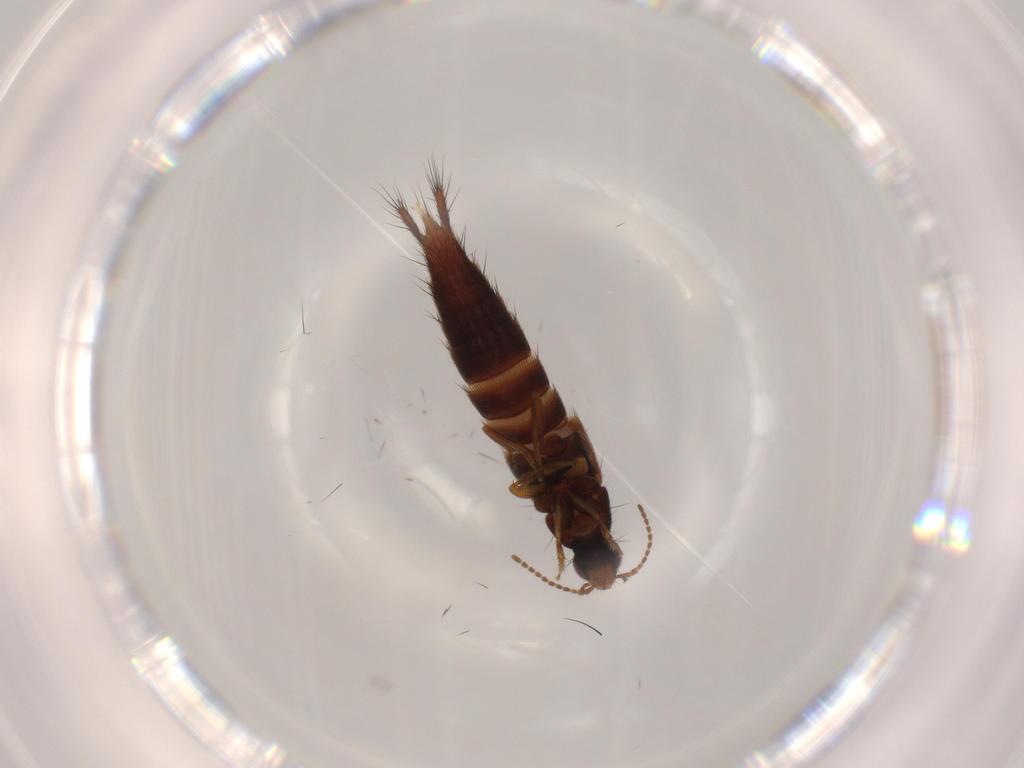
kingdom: Animalia
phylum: Arthropoda
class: Insecta
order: Coleoptera
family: Staphylinidae
